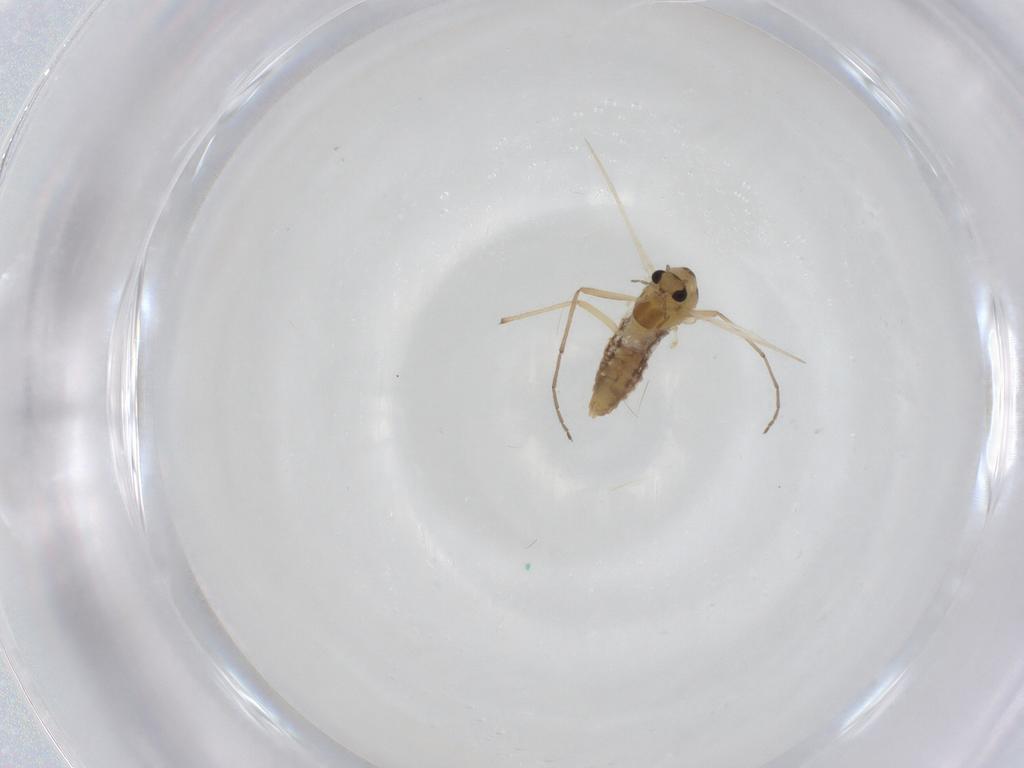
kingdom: Animalia
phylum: Arthropoda
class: Insecta
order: Diptera
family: Chironomidae
